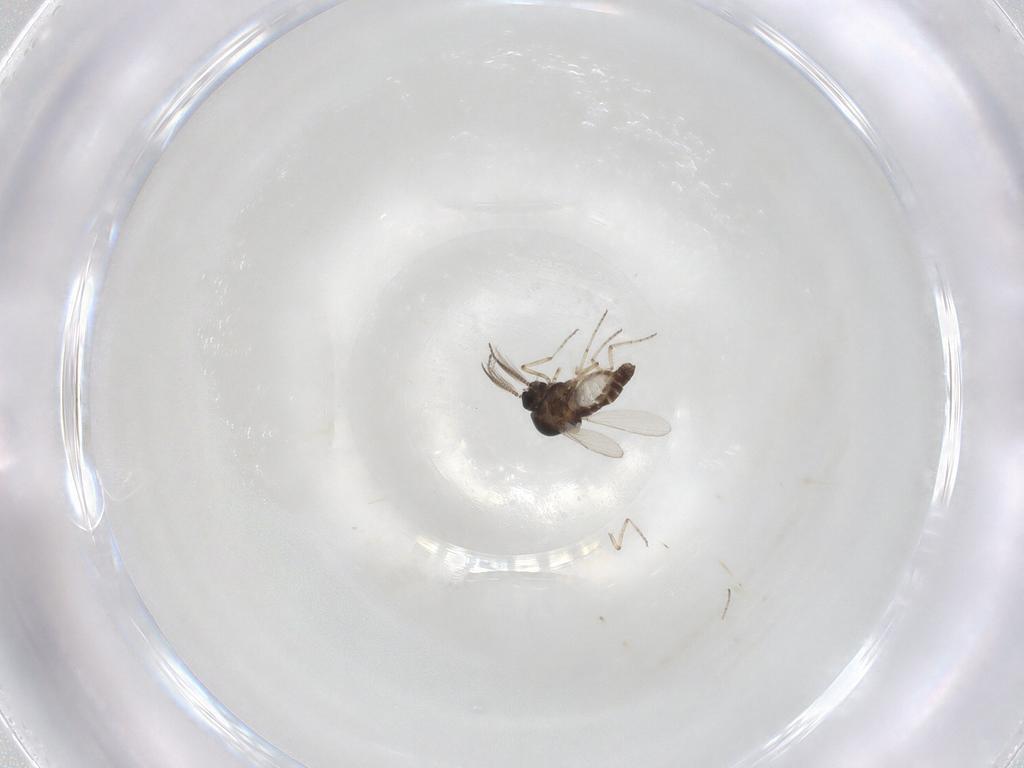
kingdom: Animalia
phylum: Arthropoda
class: Insecta
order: Diptera
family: Ceratopogonidae
